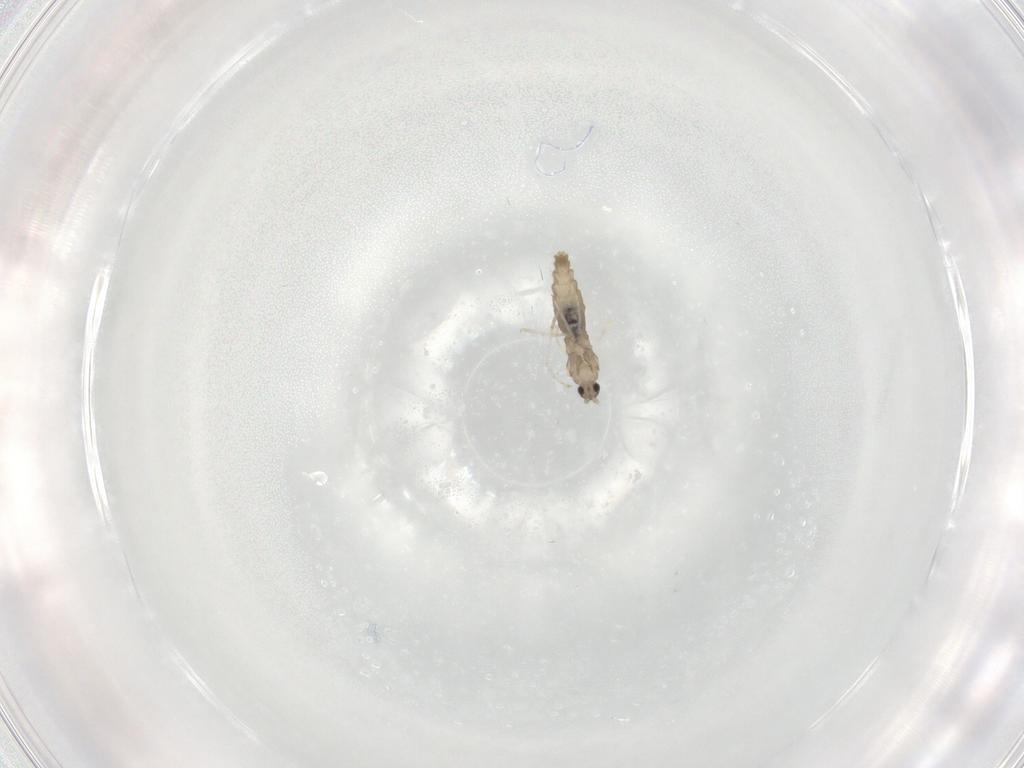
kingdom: Animalia
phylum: Arthropoda
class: Insecta
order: Diptera
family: Cecidomyiidae
